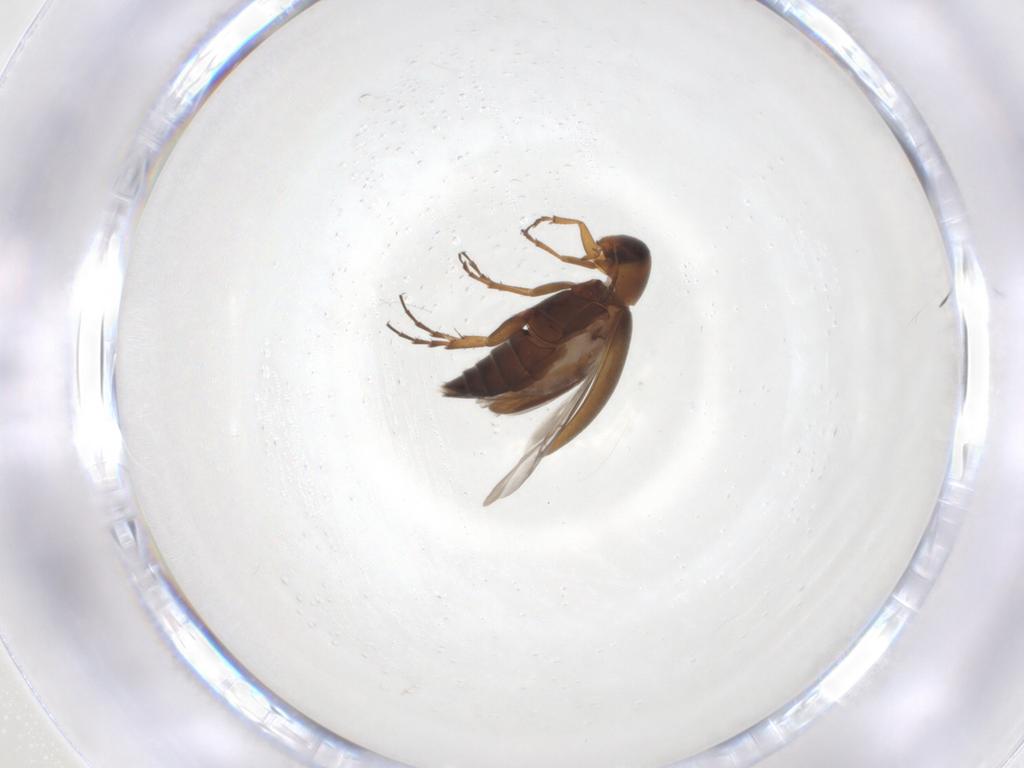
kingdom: Animalia
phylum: Arthropoda
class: Insecta
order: Coleoptera
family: Scraptiidae
